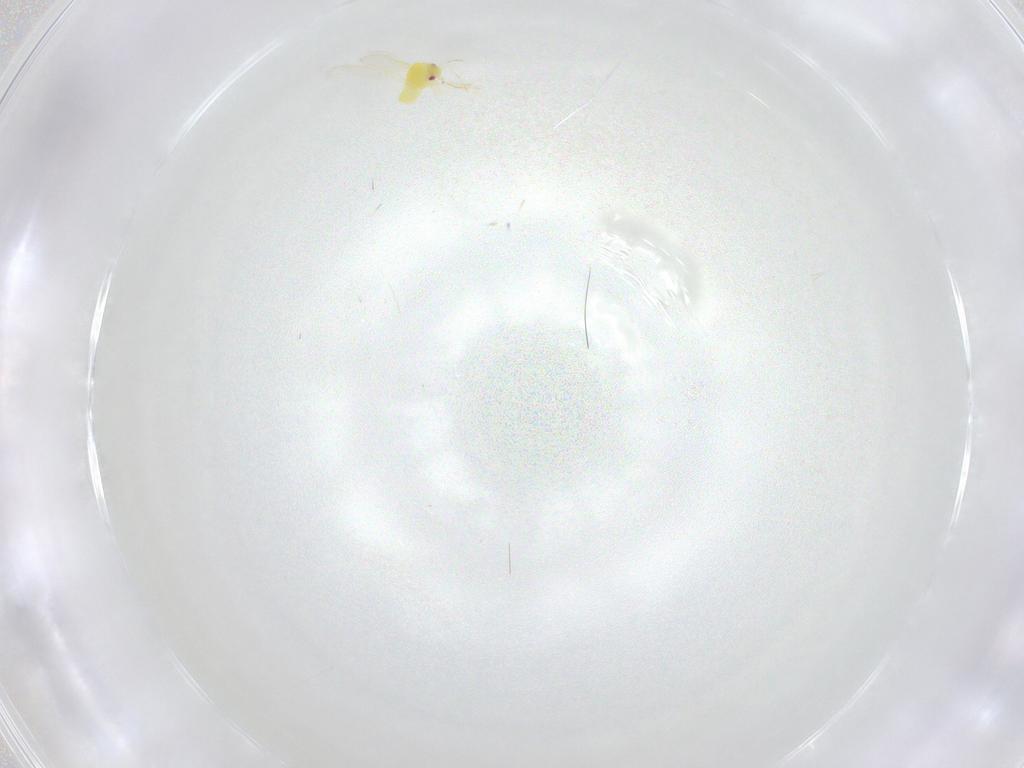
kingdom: Animalia
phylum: Arthropoda
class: Insecta
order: Hemiptera
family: Aleyrodidae
